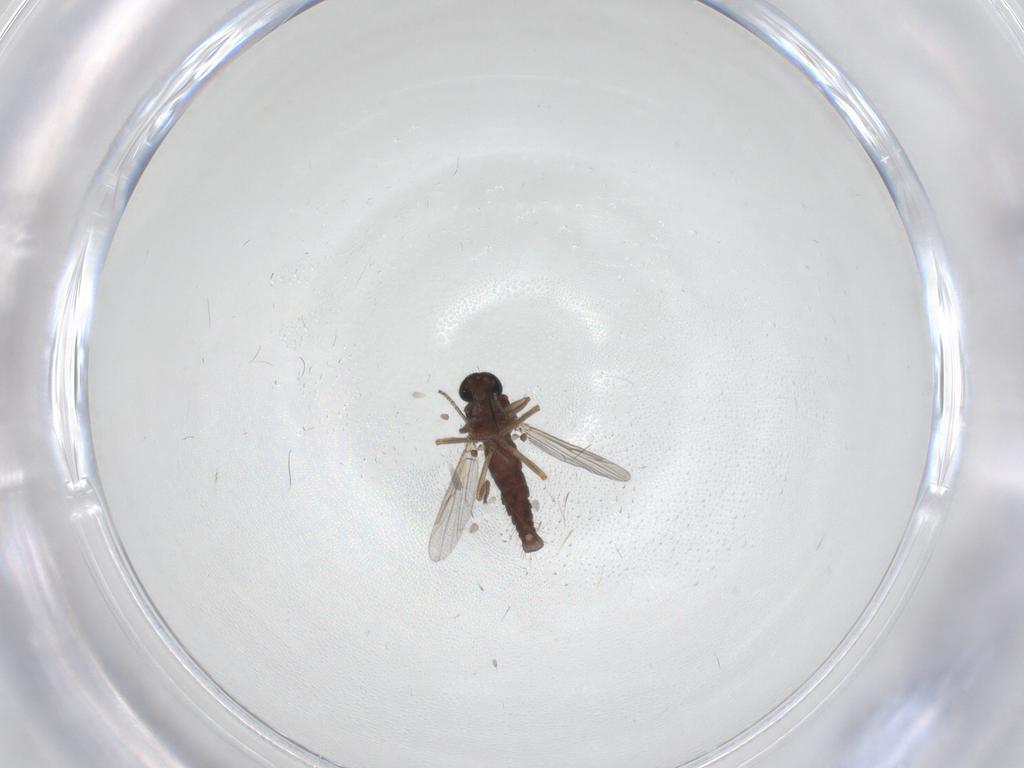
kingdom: Animalia
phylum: Arthropoda
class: Insecta
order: Diptera
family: Ceratopogonidae
